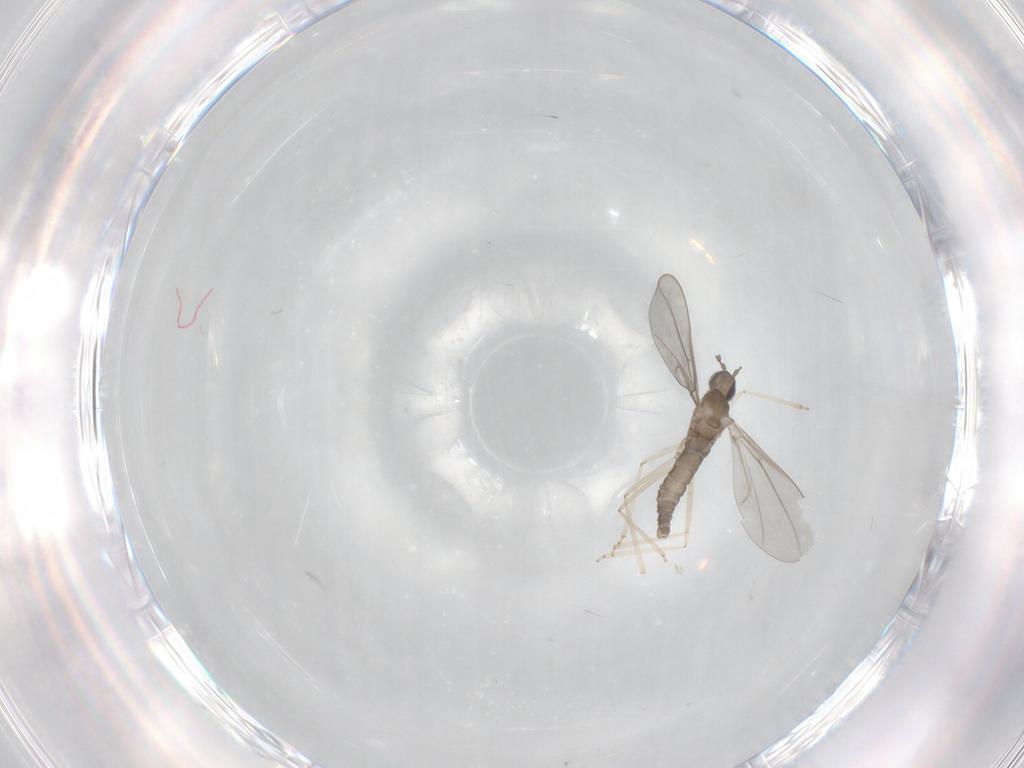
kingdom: Animalia
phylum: Arthropoda
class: Insecta
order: Diptera
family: Cecidomyiidae
